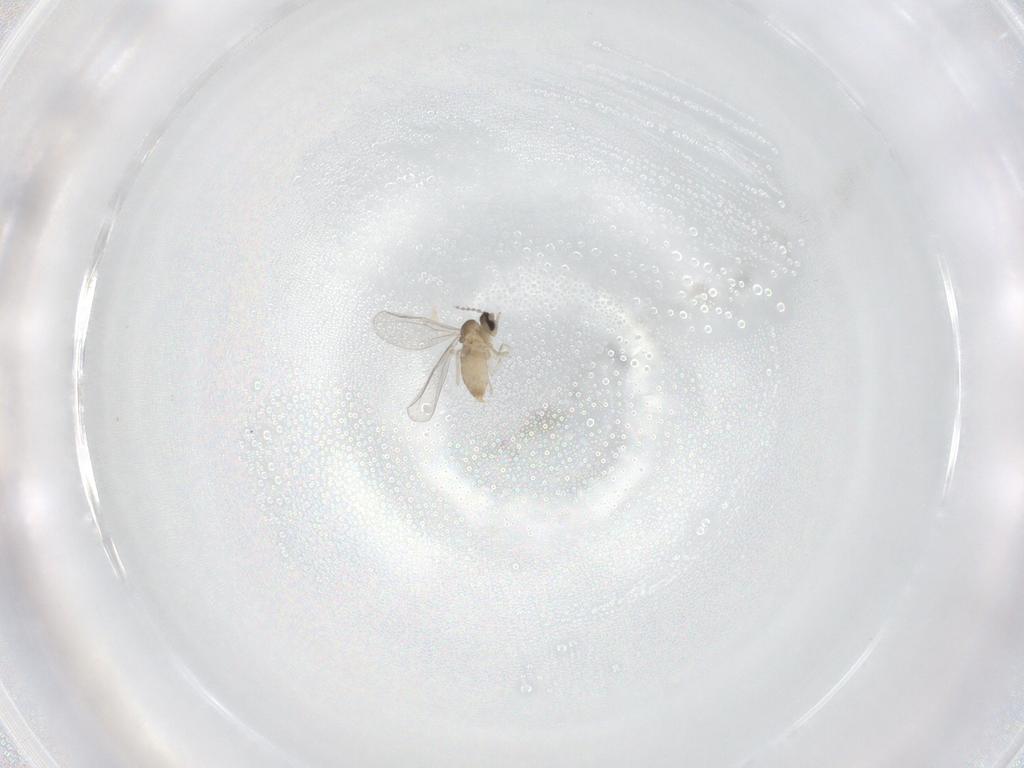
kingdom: Animalia
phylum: Arthropoda
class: Insecta
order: Diptera
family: Cecidomyiidae
